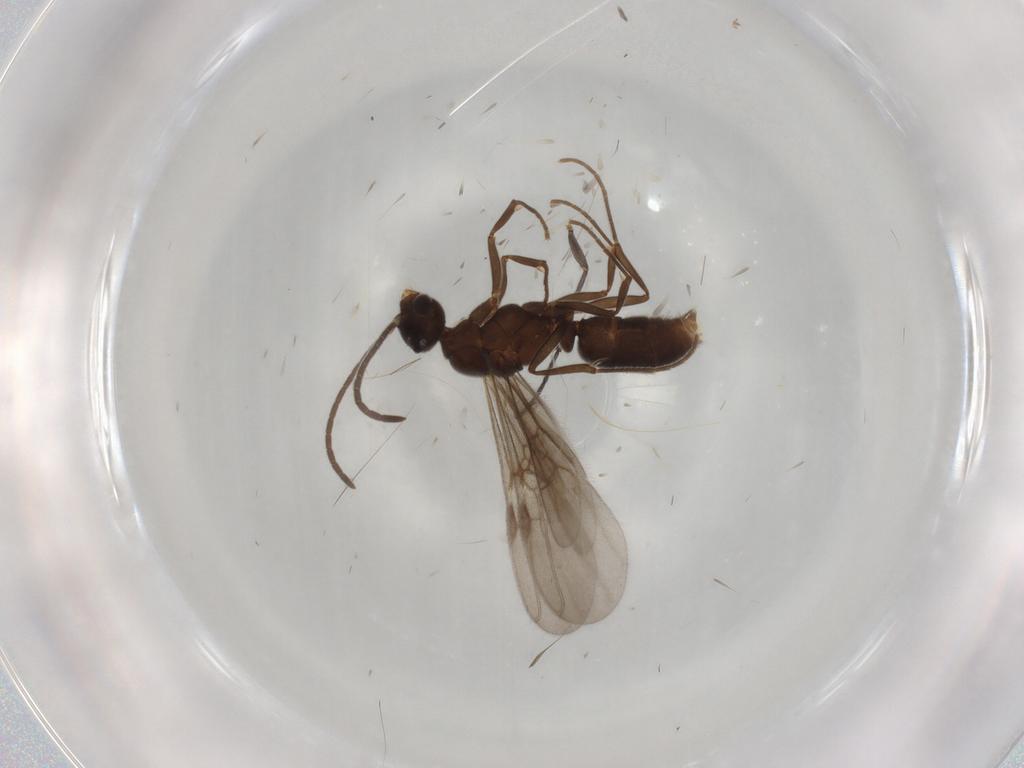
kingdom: Animalia
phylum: Arthropoda
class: Insecta
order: Hymenoptera
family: Formicidae
